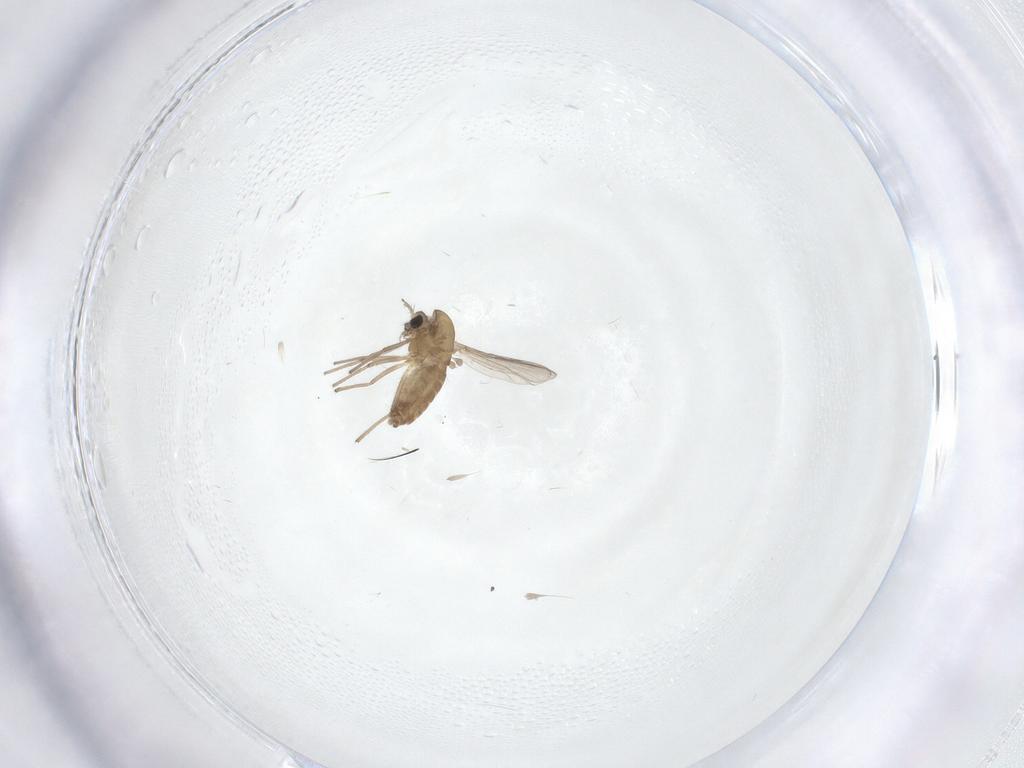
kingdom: Animalia
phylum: Arthropoda
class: Insecta
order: Diptera
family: Chironomidae
